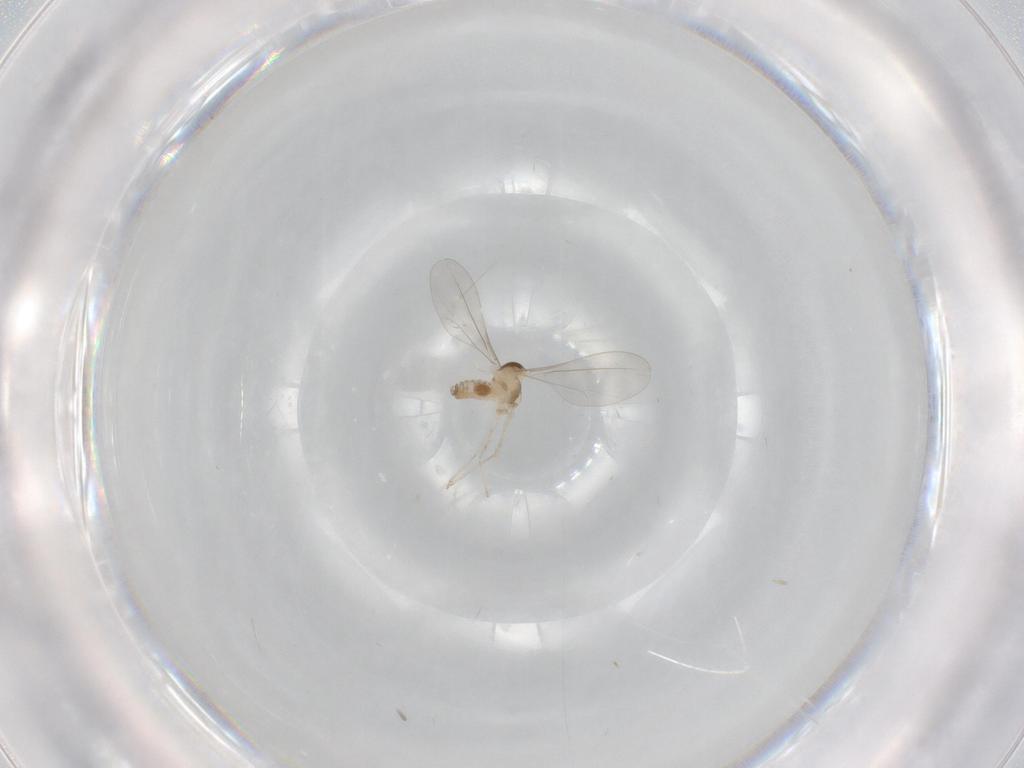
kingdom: Animalia
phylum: Arthropoda
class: Insecta
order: Diptera
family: Cecidomyiidae
